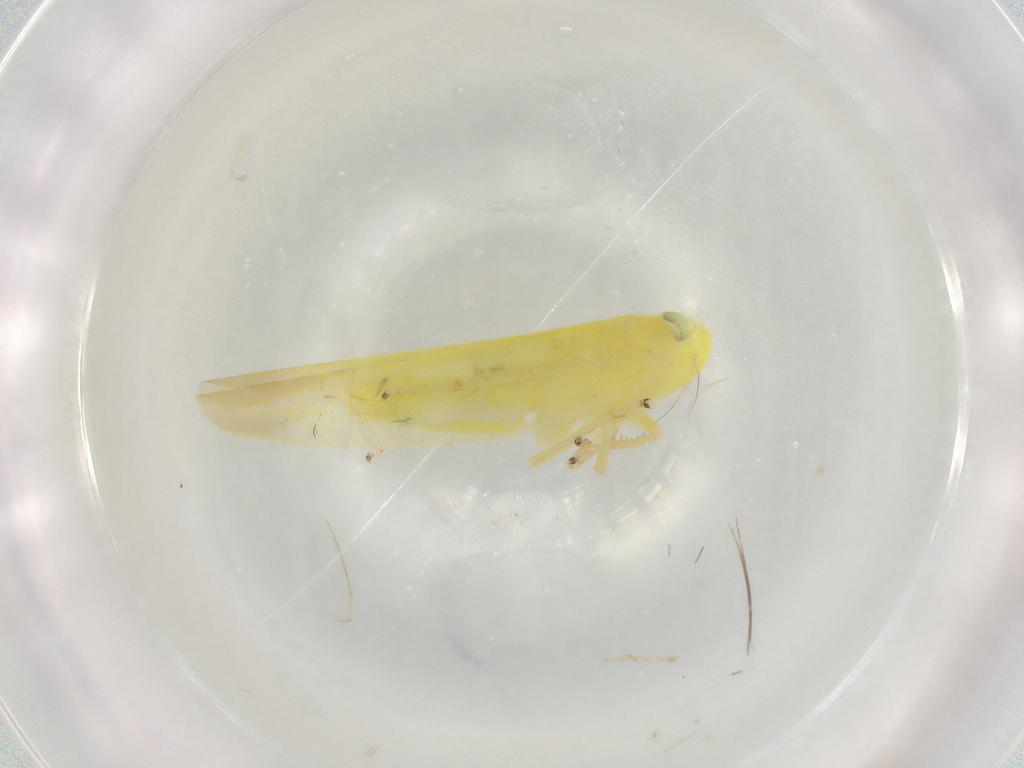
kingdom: Animalia
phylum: Arthropoda
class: Insecta
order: Hemiptera
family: Cicadellidae
